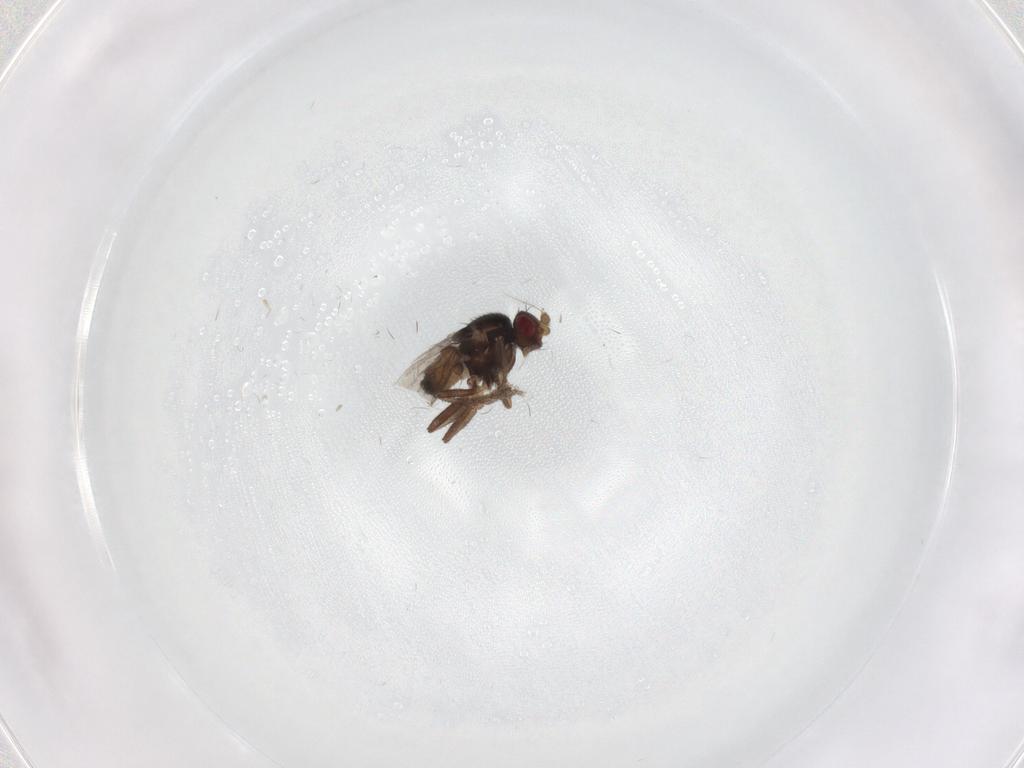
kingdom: Animalia
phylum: Arthropoda
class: Insecta
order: Diptera
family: Sphaeroceridae
